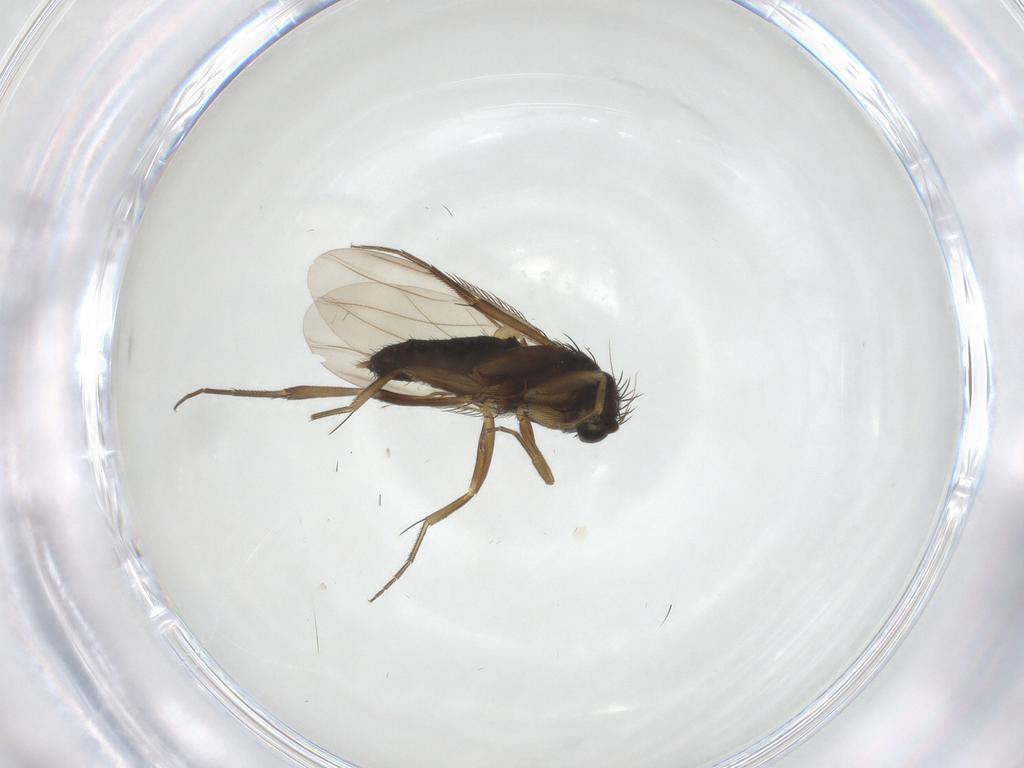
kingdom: Animalia
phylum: Arthropoda
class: Insecta
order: Diptera
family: Phoridae
